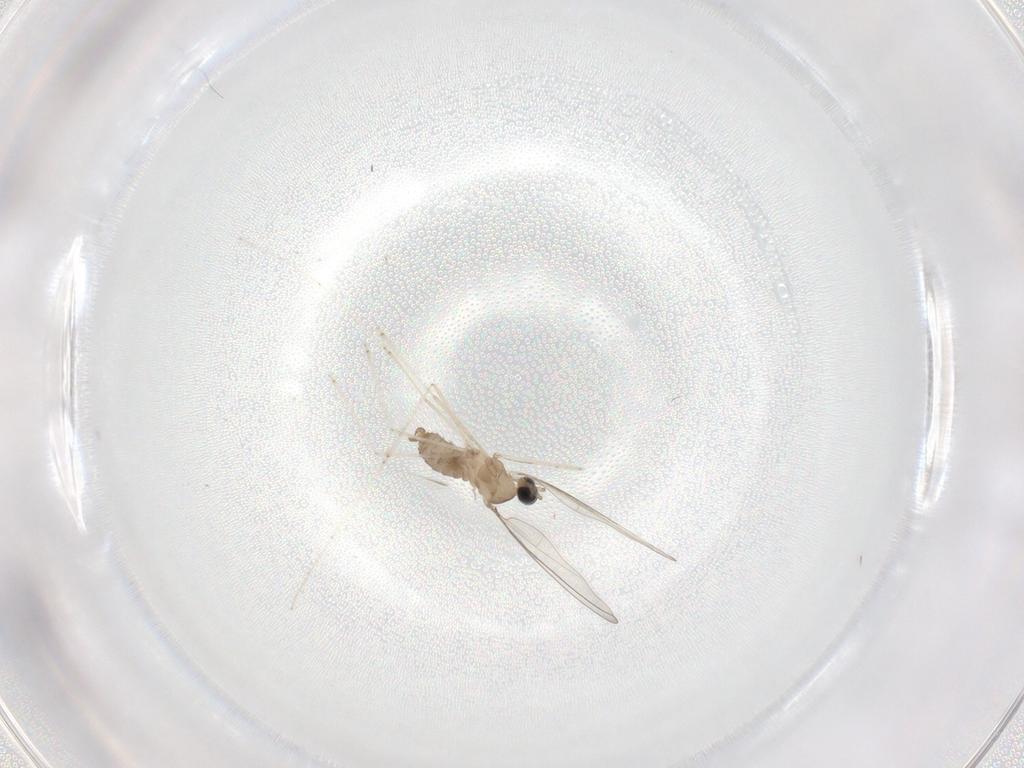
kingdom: Animalia
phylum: Arthropoda
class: Insecta
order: Diptera
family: Cecidomyiidae
